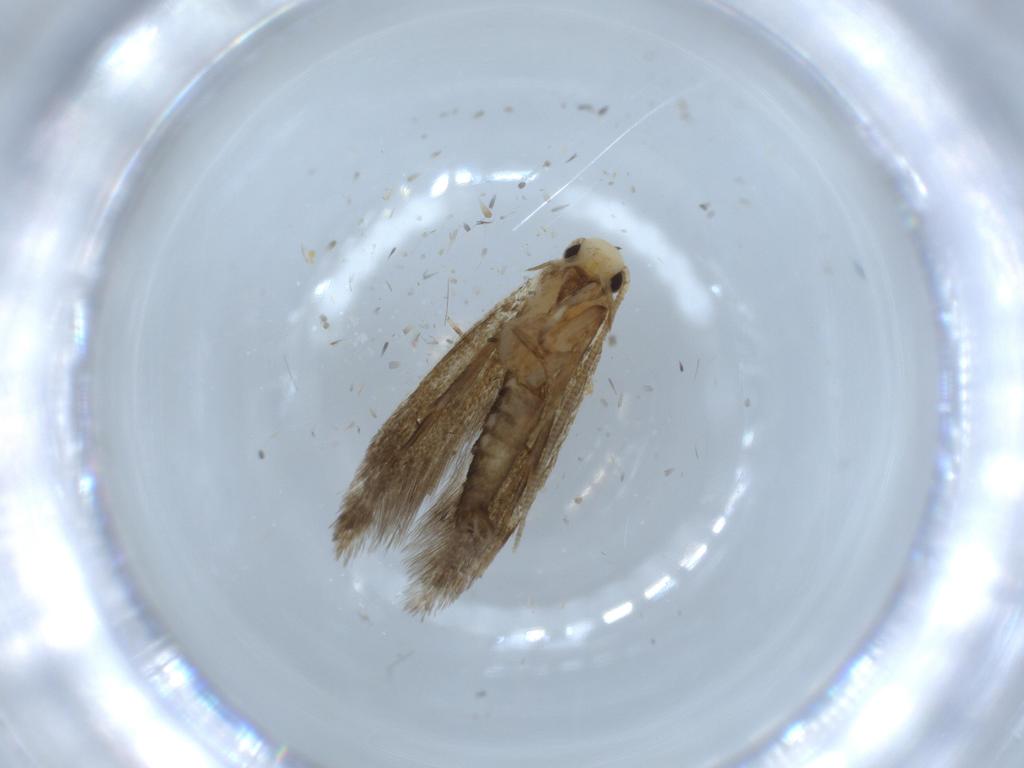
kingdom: Animalia
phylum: Arthropoda
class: Insecta
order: Lepidoptera
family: Tineidae
